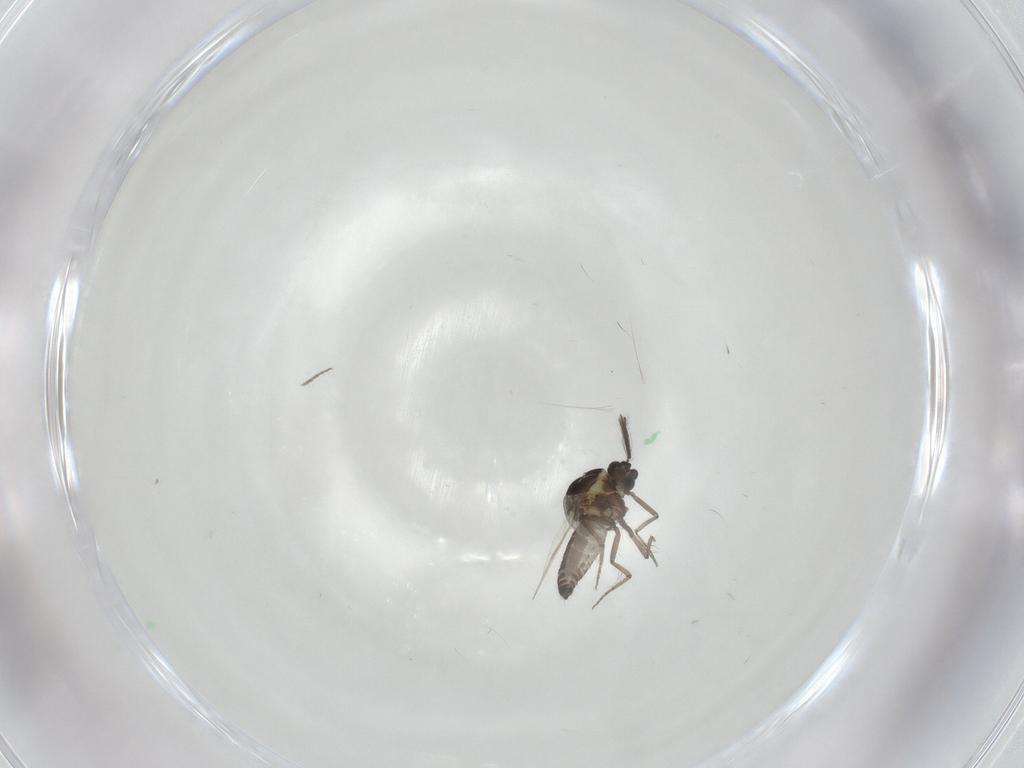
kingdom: Animalia
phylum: Arthropoda
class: Insecta
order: Diptera
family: Ceratopogonidae
